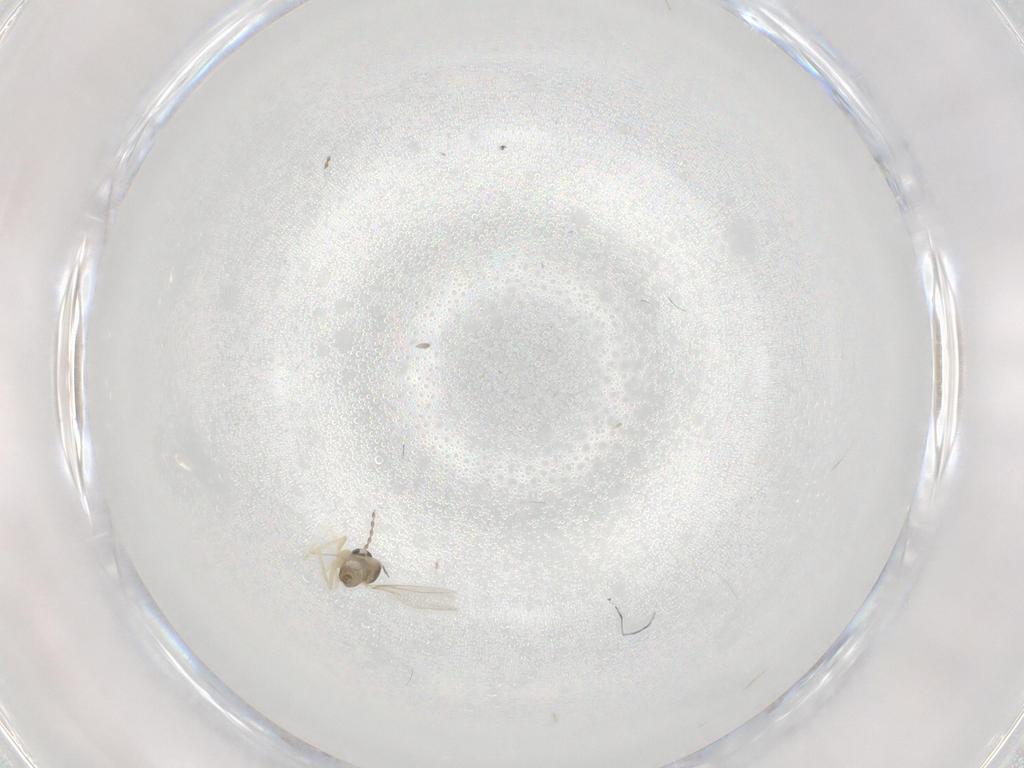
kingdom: Animalia
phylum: Arthropoda
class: Insecta
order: Diptera
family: Cecidomyiidae
